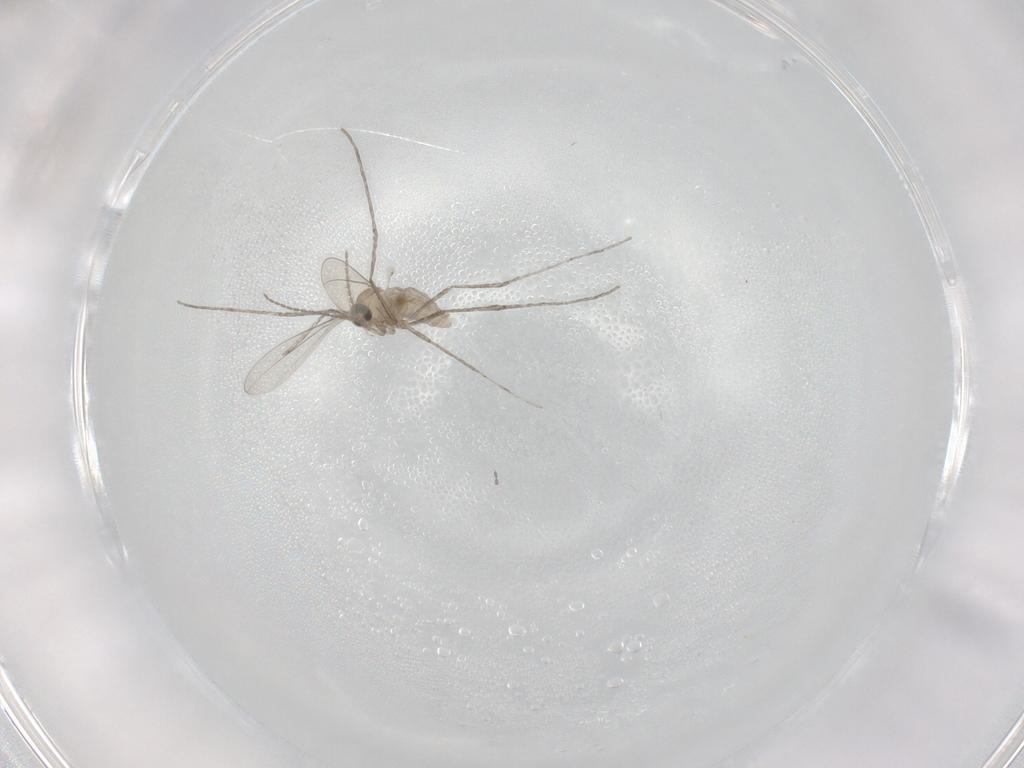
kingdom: Animalia
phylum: Arthropoda
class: Insecta
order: Diptera
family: Cecidomyiidae
